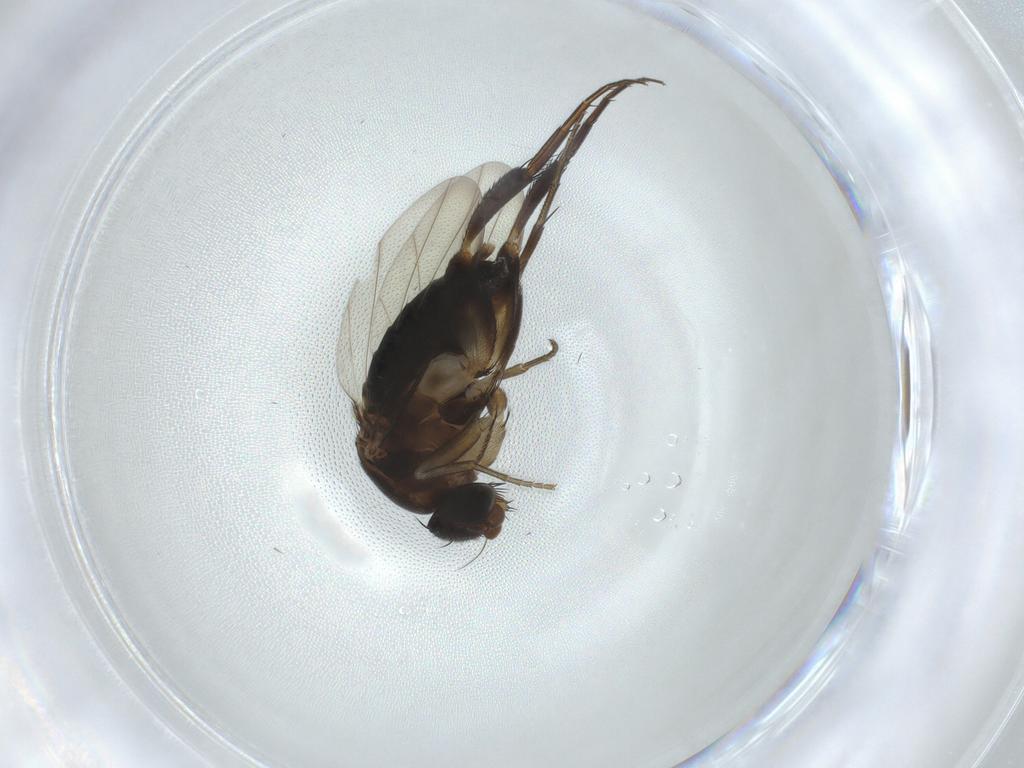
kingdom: Animalia
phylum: Arthropoda
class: Insecta
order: Diptera
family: Phoridae
